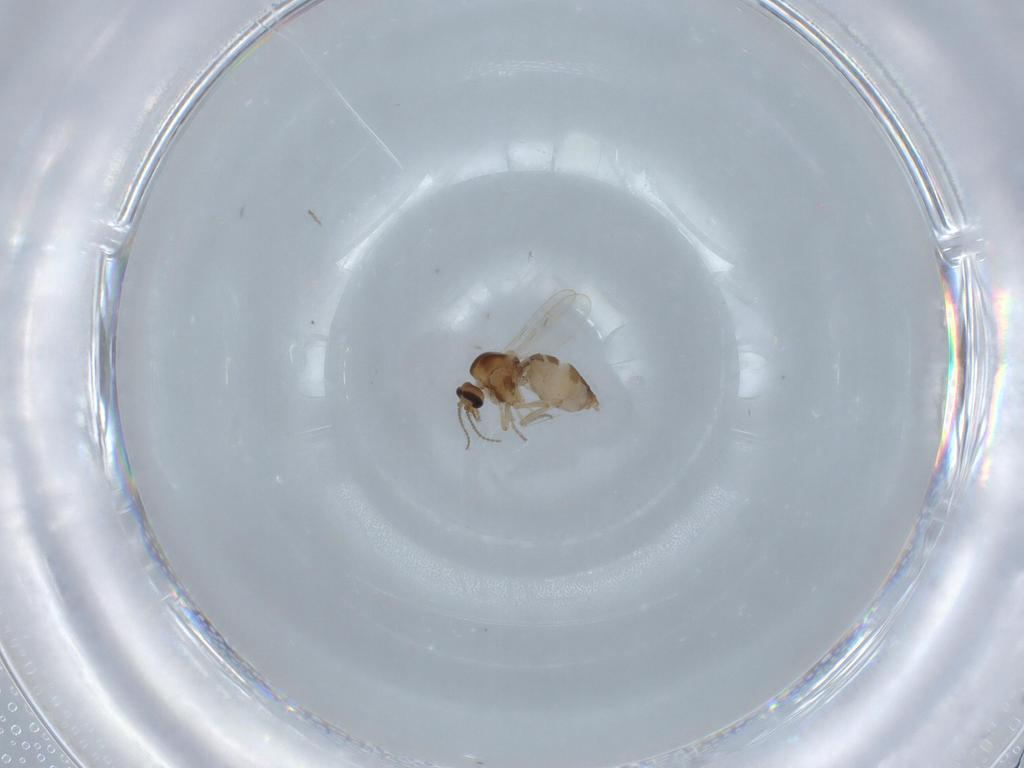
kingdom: Animalia
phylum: Arthropoda
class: Insecta
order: Diptera
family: Ceratopogonidae
